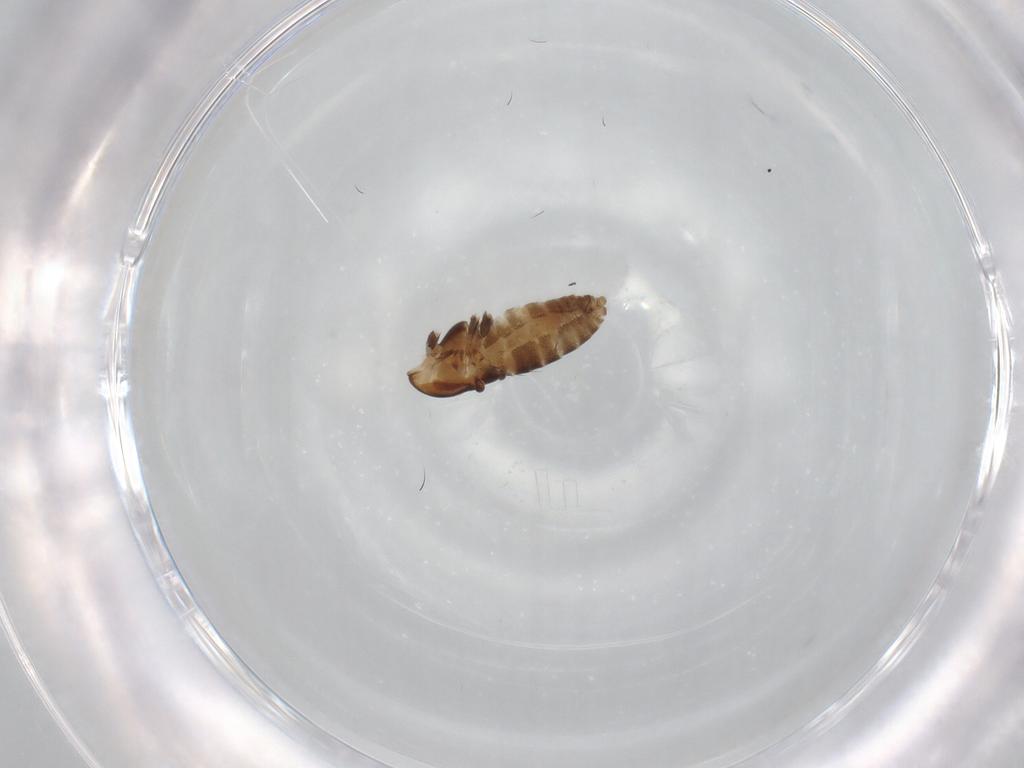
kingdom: Animalia
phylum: Arthropoda
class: Insecta
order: Diptera
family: Chironomidae
